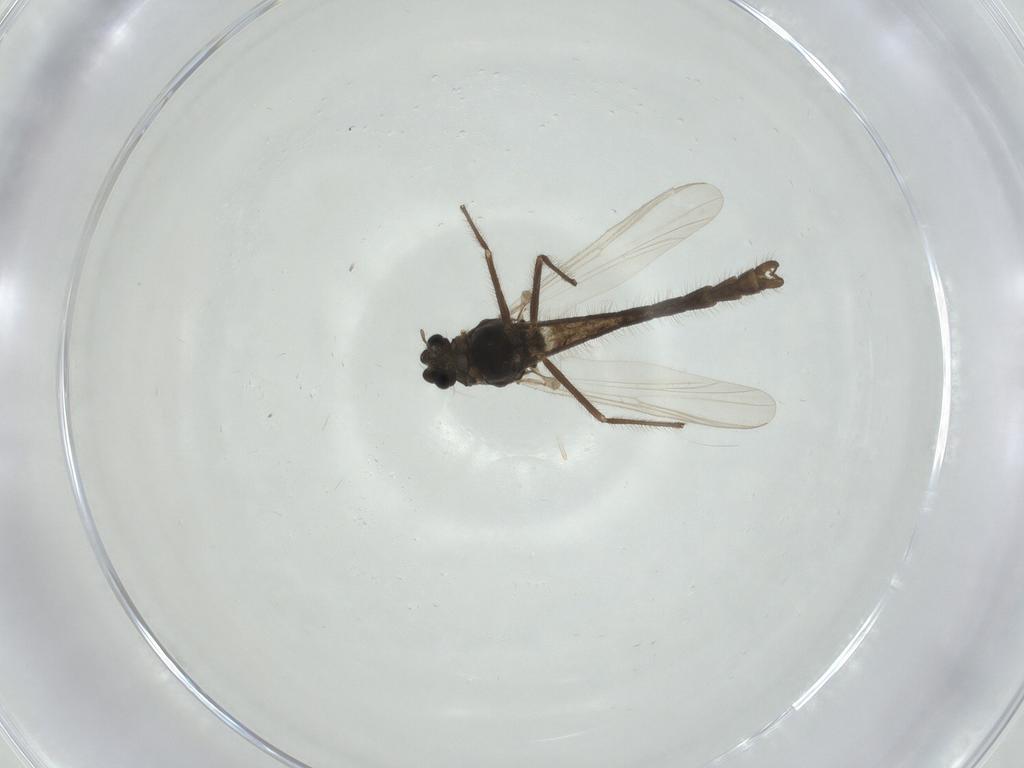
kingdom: Animalia
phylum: Arthropoda
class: Insecta
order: Diptera
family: Chironomidae
